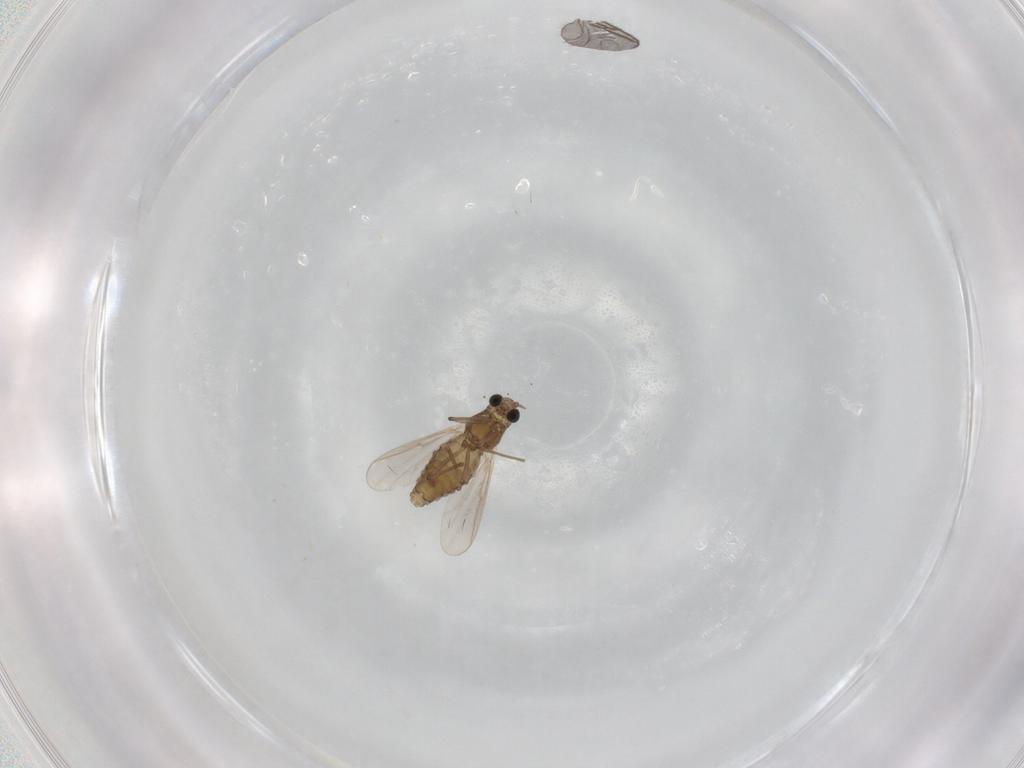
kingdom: Animalia
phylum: Arthropoda
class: Insecta
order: Diptera
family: Chironomidae
